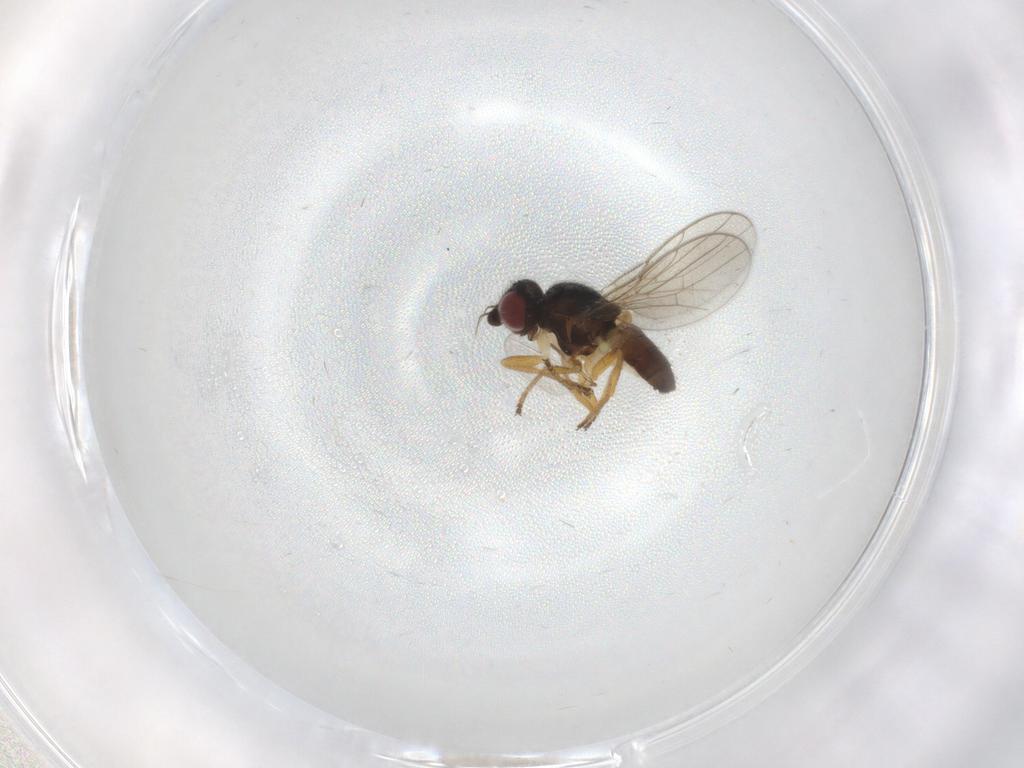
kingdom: Animalia
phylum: Arthropoda
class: Insecta
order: Diptera
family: Chloropidae
